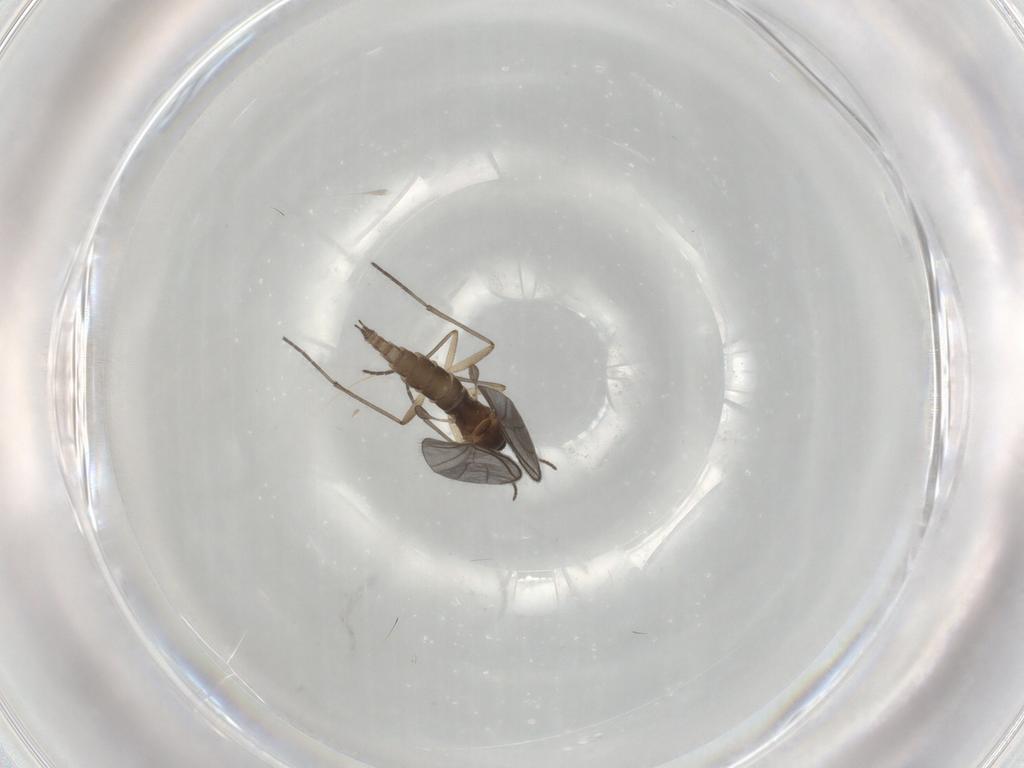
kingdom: Animalia
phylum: Arthropoda
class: Insecta
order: Diptera
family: Sciaridae
